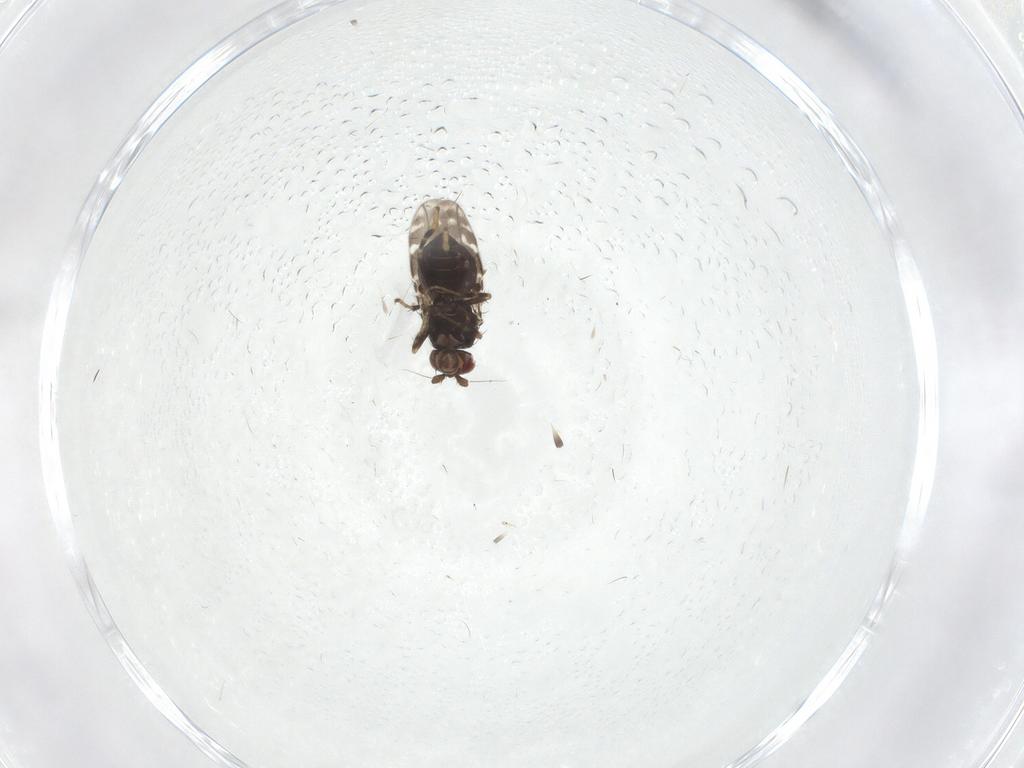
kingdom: Animalia
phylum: Arthropoda
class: Insecta
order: Diptera
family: Sphaeroceridae
